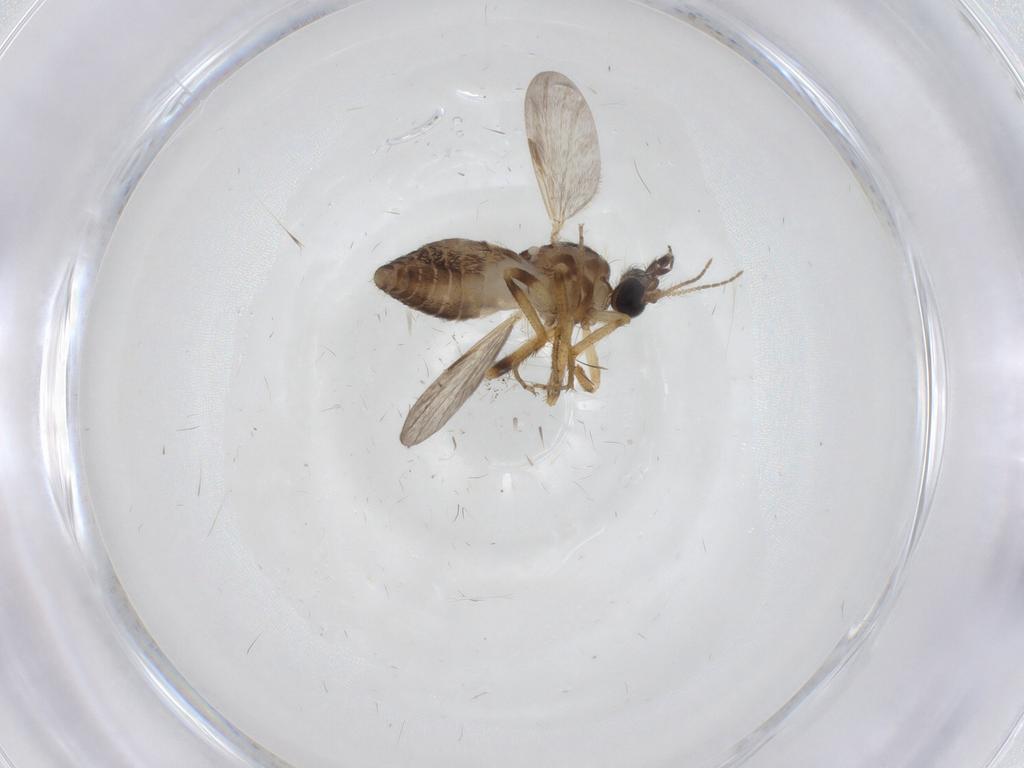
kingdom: Animalia
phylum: Arthropoda
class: Insecta
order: Diptera
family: Ceratopogonidae
